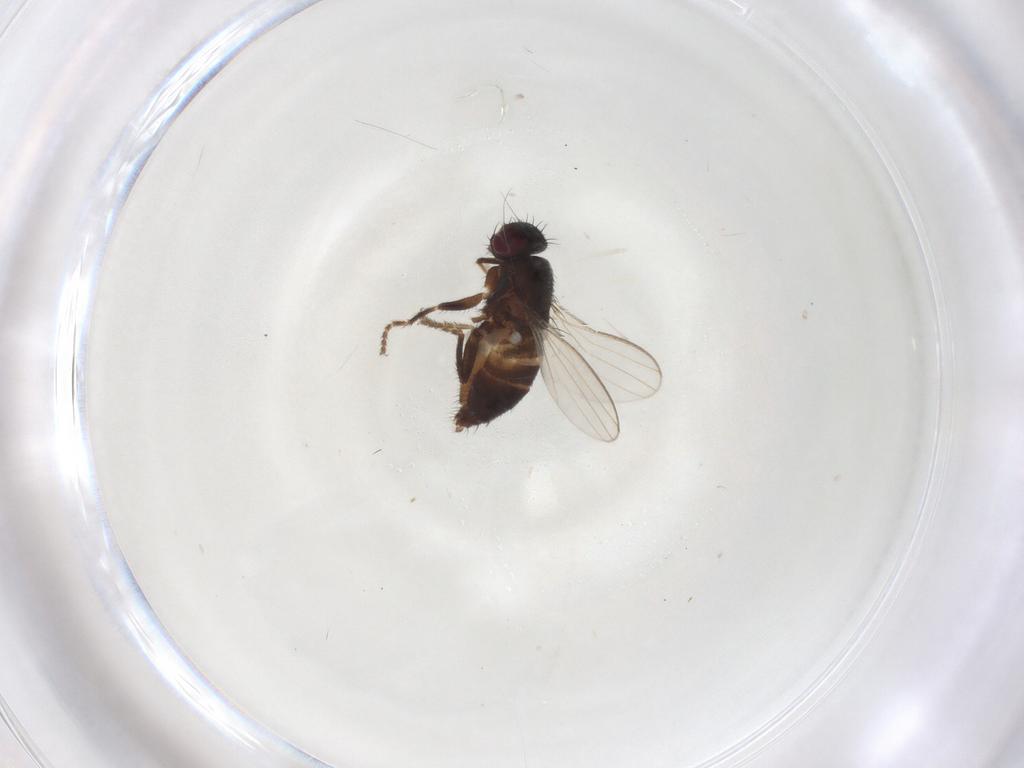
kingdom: Animalia
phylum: Arthropoda
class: Insecta
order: Diptera
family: Milichiidae
